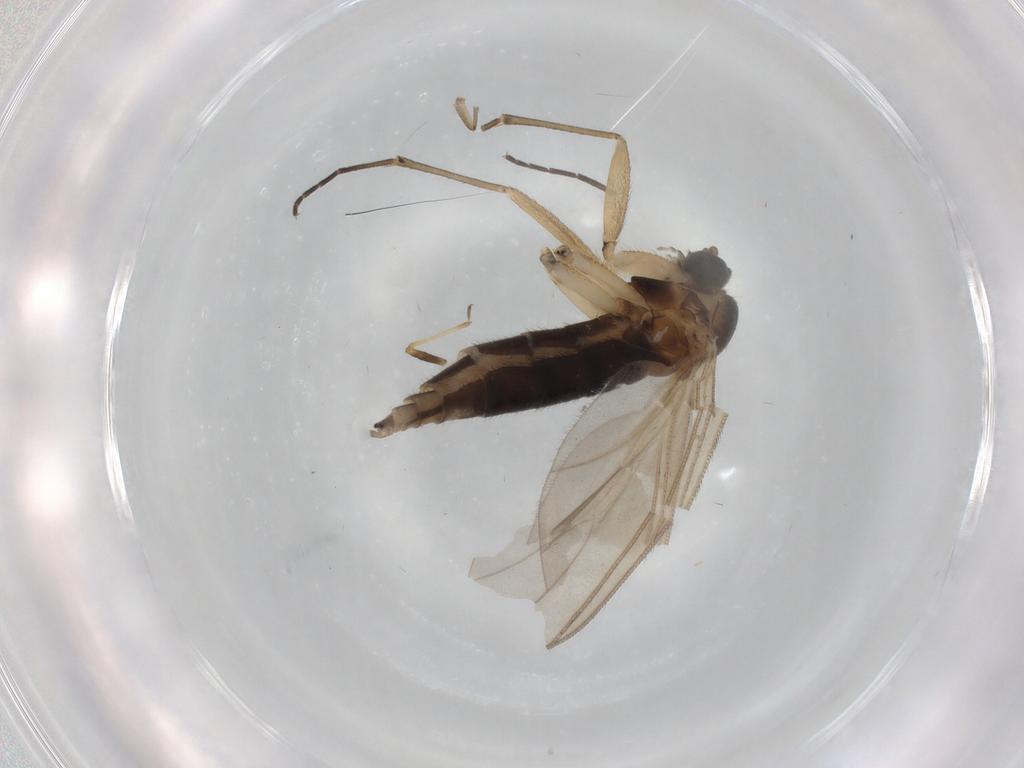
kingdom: Animalia
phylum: Arthropoda
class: Insecta
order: Diptera
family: Sciaridae
